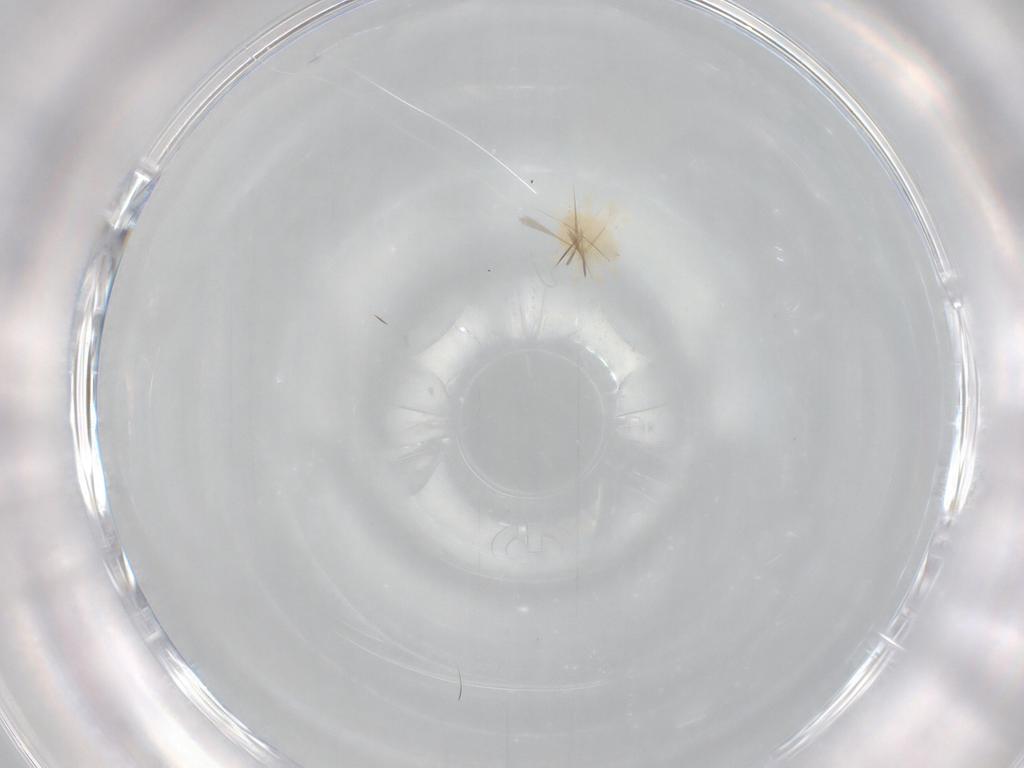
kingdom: Animalia
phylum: Arthropoda
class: Arachnida
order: Trombidiformes
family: Anystidae
